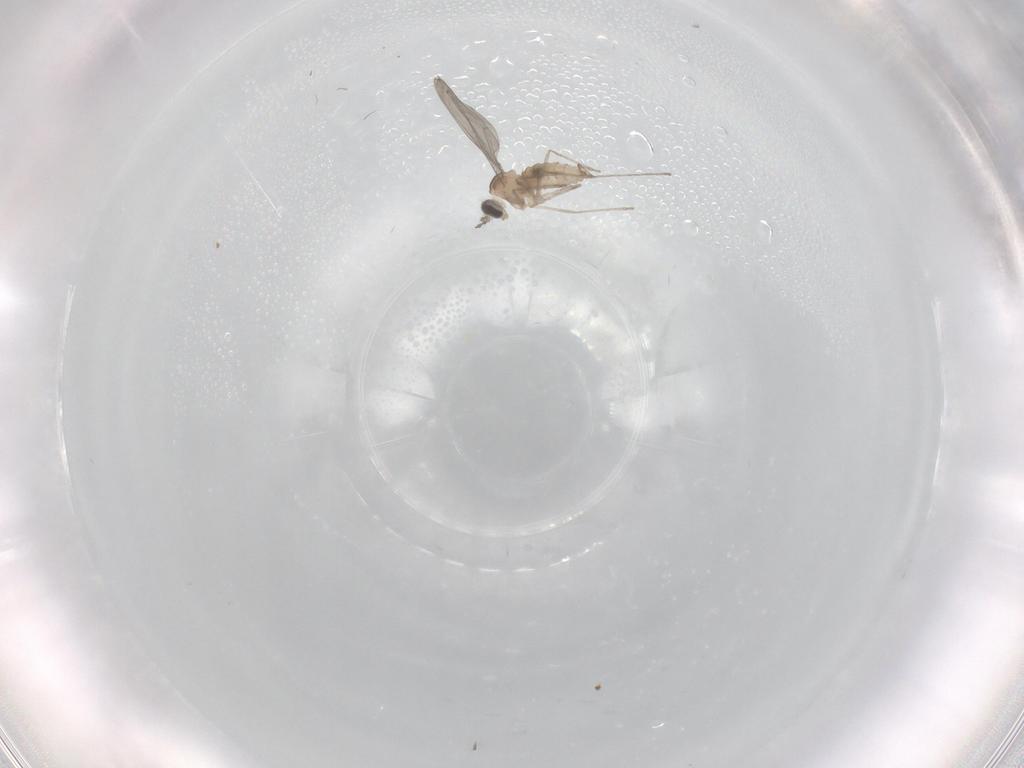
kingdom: Animalia
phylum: Arthropoda
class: Insecta
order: Diptera
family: Cecidomyiidae
